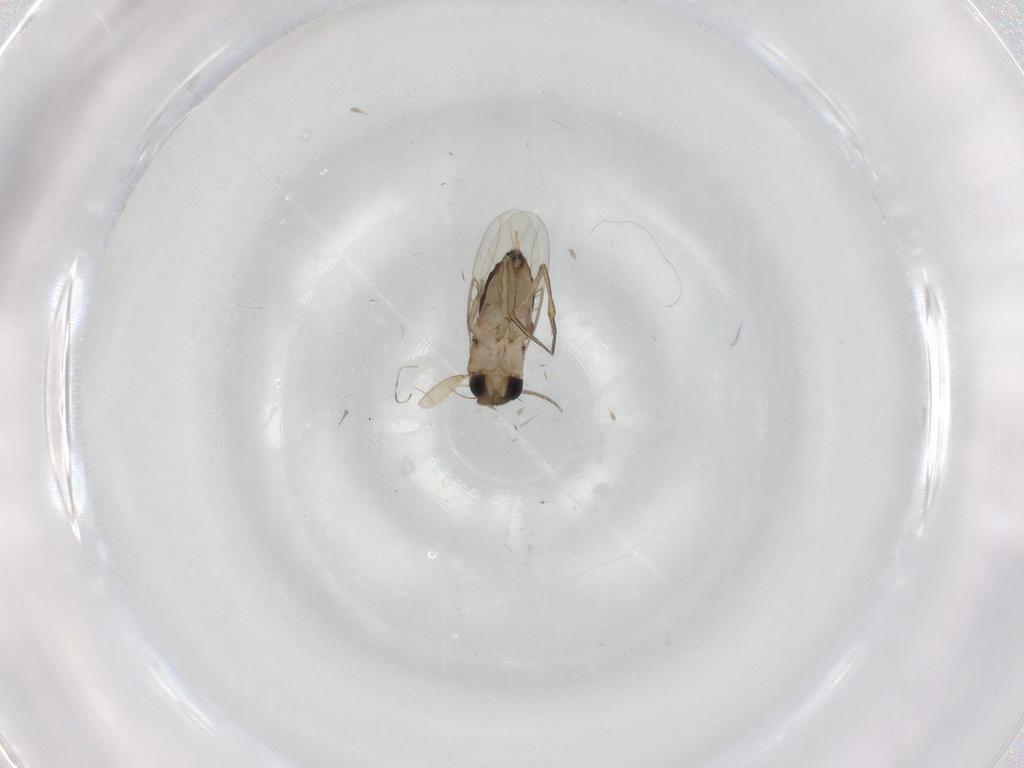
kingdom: Animalia
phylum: Arthropoda
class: Insecta
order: Diptera
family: Phoridae
